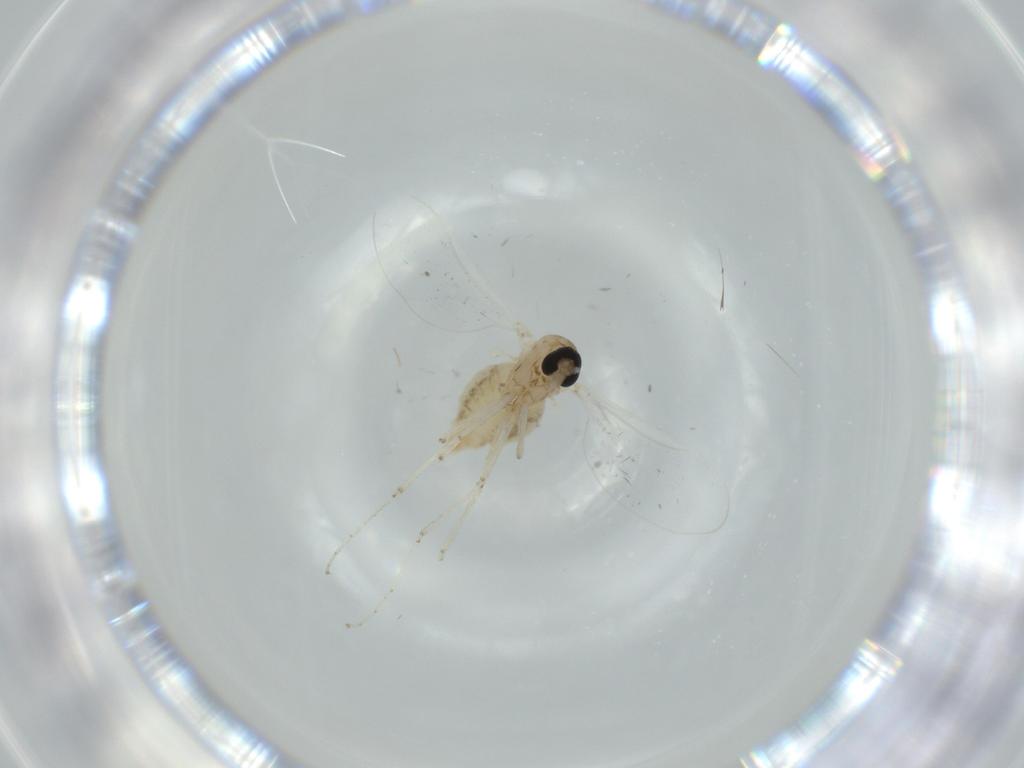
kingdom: Animalia
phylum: Arthropoda
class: Insecta
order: Diptera
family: Cecidomyiidae
